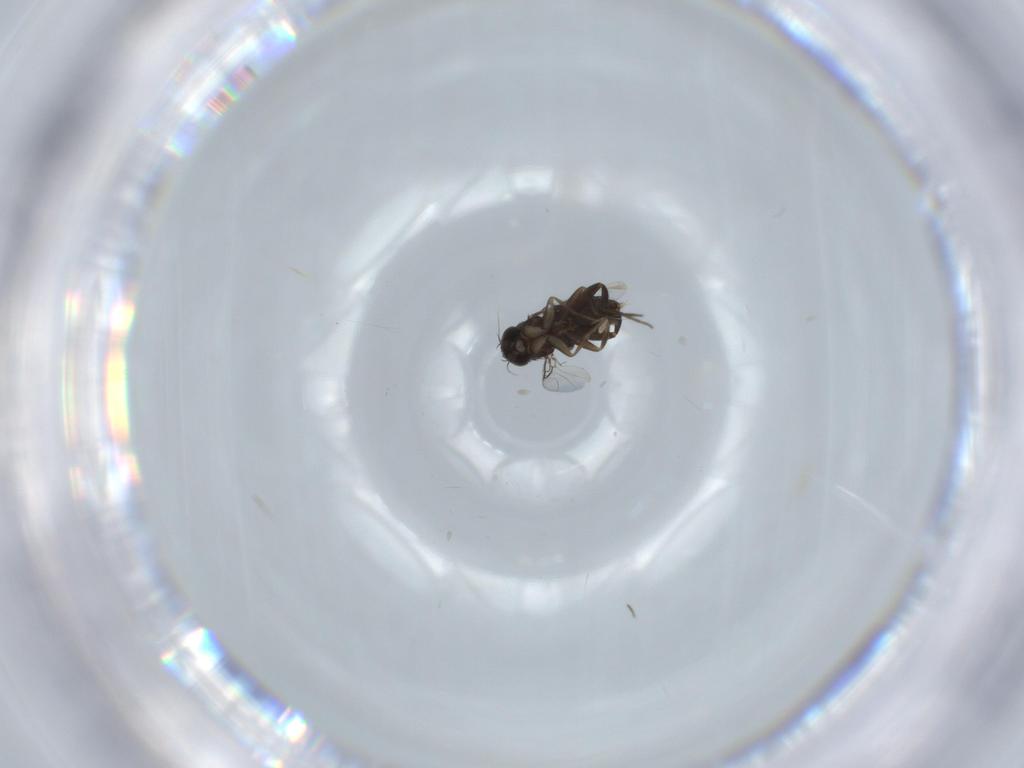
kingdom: Animalia
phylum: Arthropoda
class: Insecta
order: Diptera
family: Phoridae
